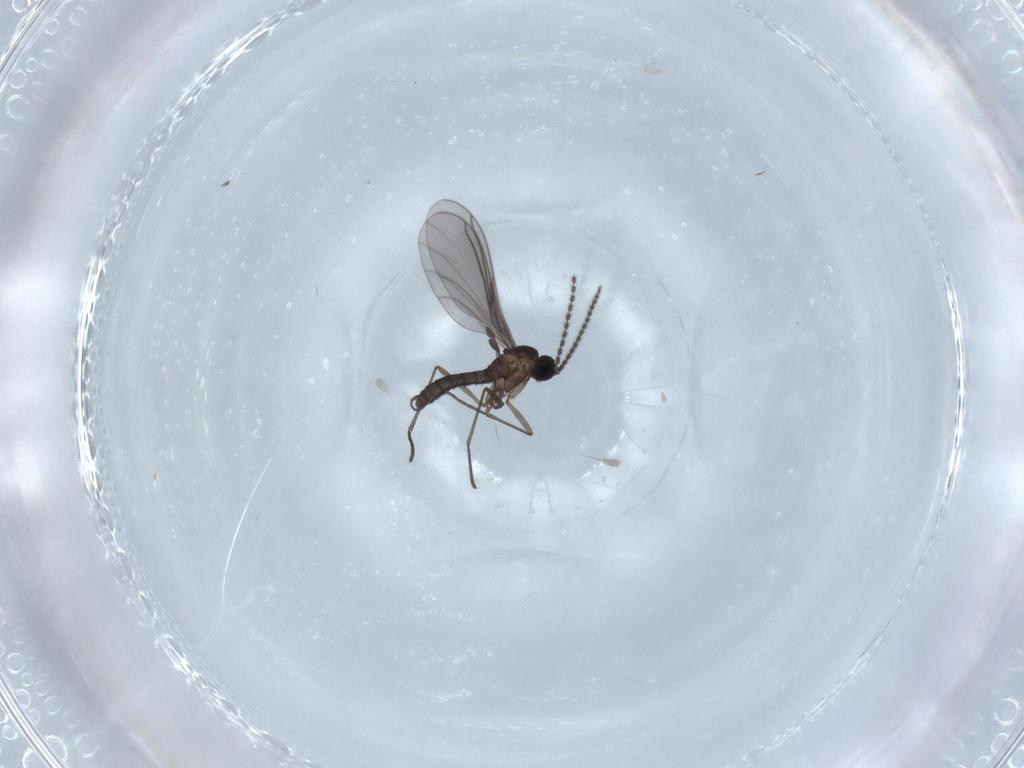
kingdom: Animalia
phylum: Arthropoda
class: Insecta
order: Diptera
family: Sciaridae
